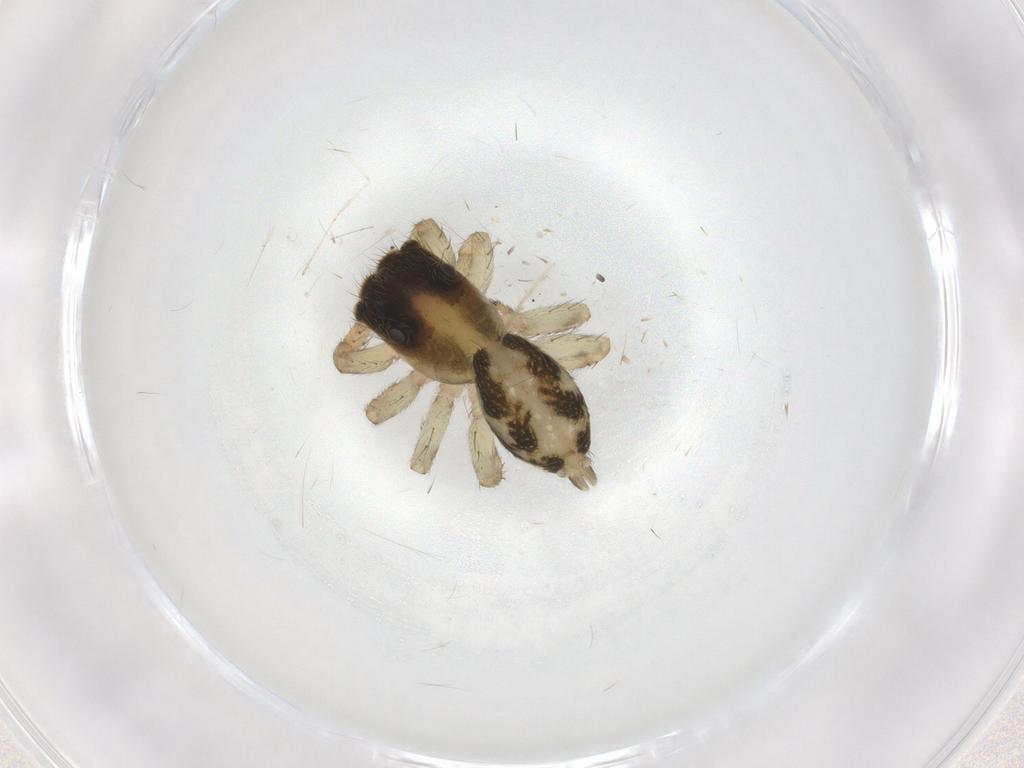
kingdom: Animalia
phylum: Arthropoda
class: Arachnida
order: Araneae
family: Salticidae
